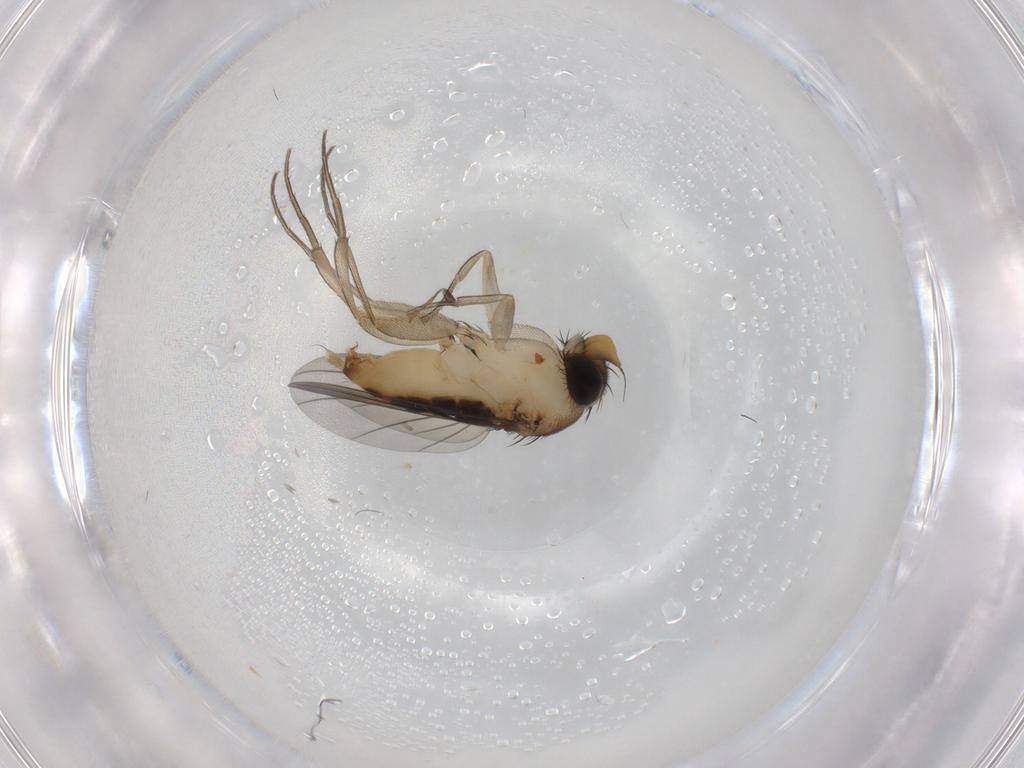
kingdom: Animalia
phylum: Arthropoda
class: Insecta
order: Diptera
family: Phoridae
